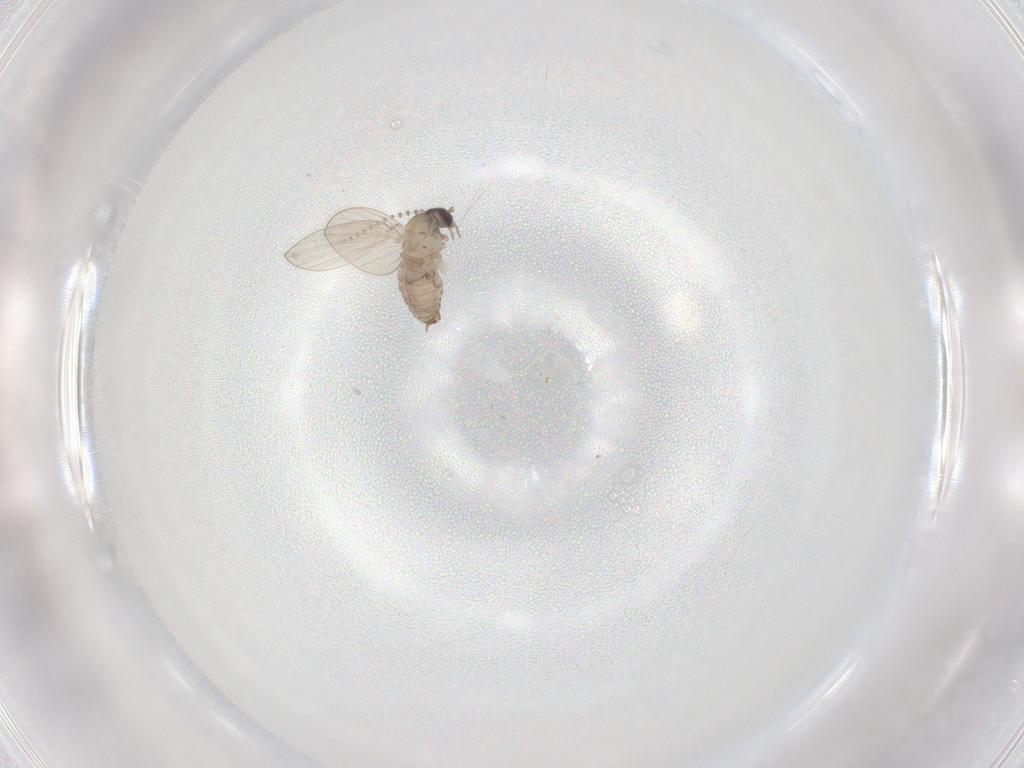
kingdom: Animalia
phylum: Arthropoda
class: Insecta
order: Diptera
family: Psychodidae
